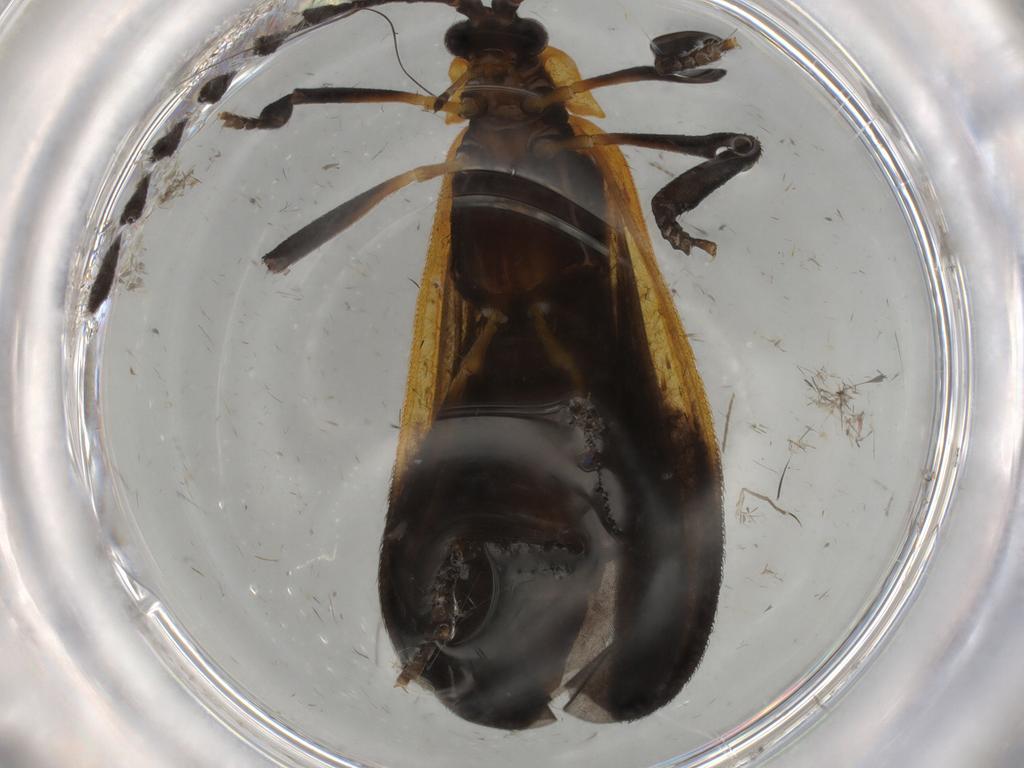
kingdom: Animalia
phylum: Arthropoda
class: Insecta
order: Coleoptera
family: Lycidae
